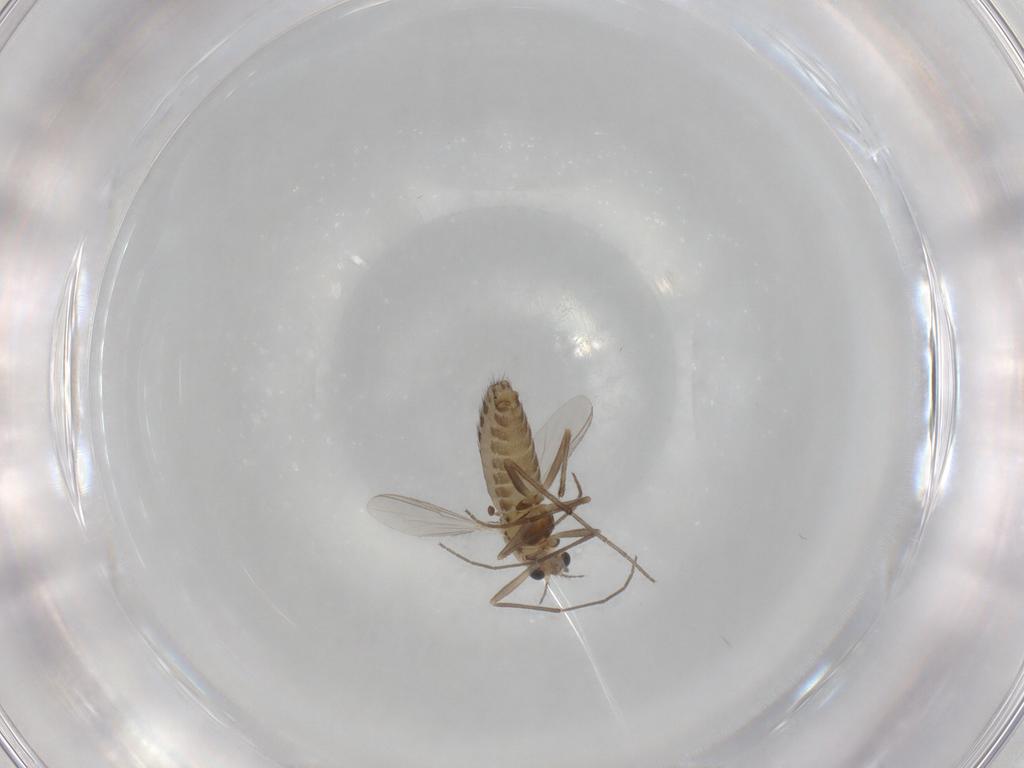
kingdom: Animalia
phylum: Arthropoda
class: Insecta
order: Diptera
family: Chironomidae
